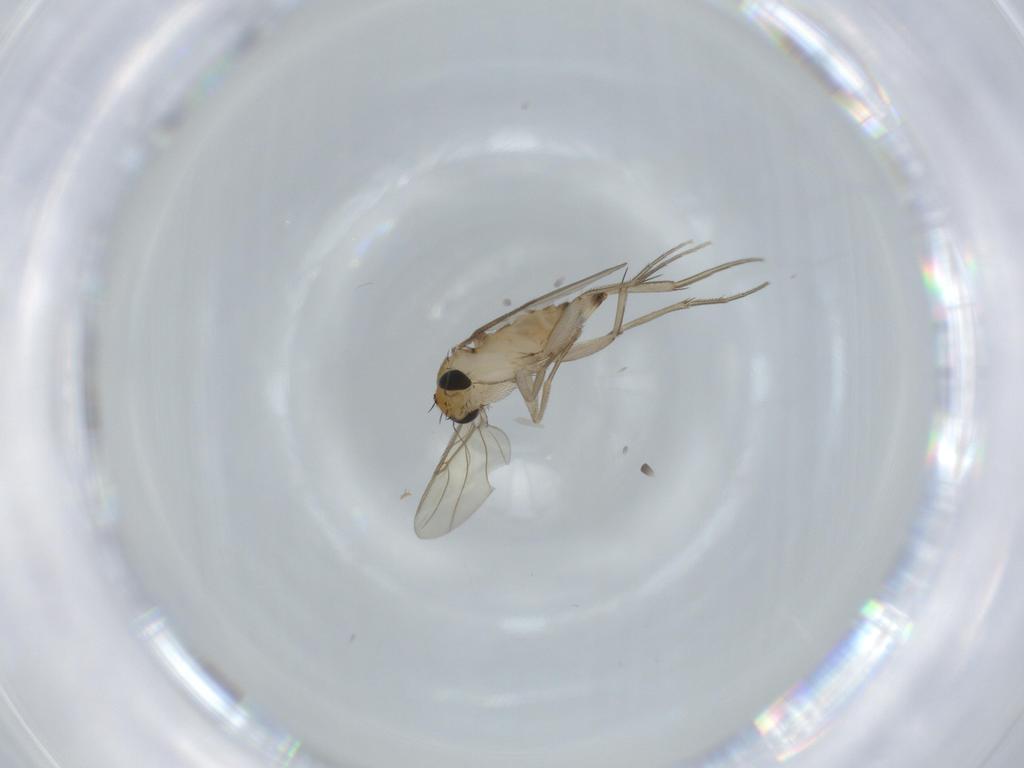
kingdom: Animalia
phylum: Arthropoda
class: Insecta
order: Diptera
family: Phoridae
